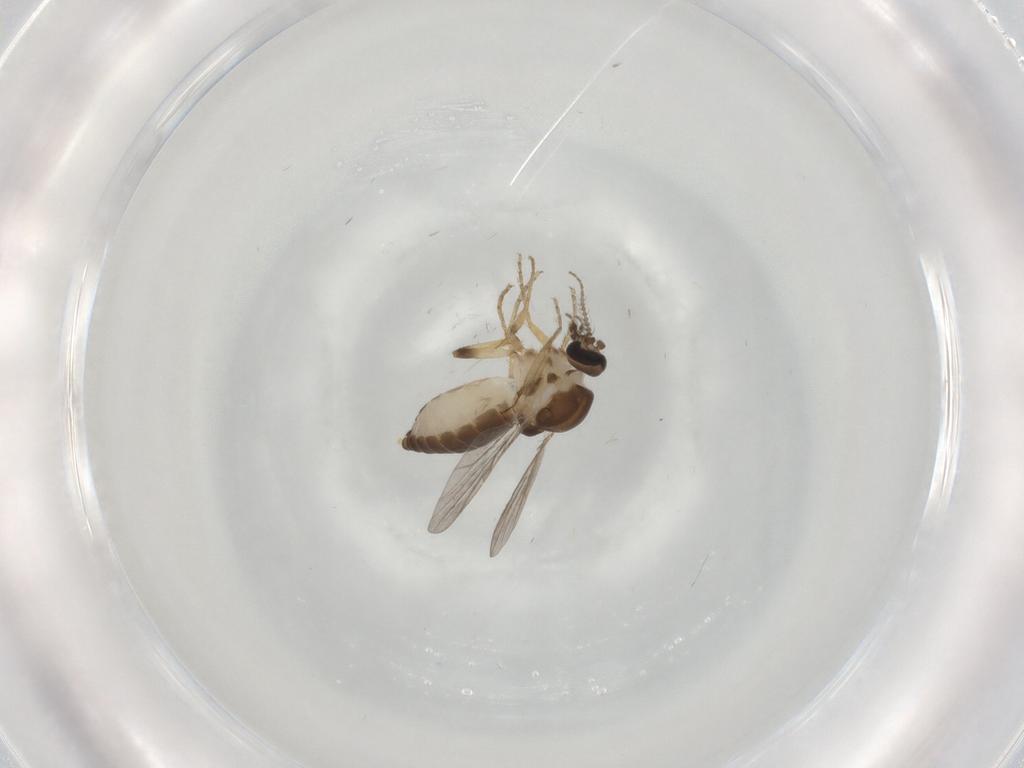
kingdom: Animalia
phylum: Arthropoda
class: Insecta
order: Diptera
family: Ceratopogonidae
